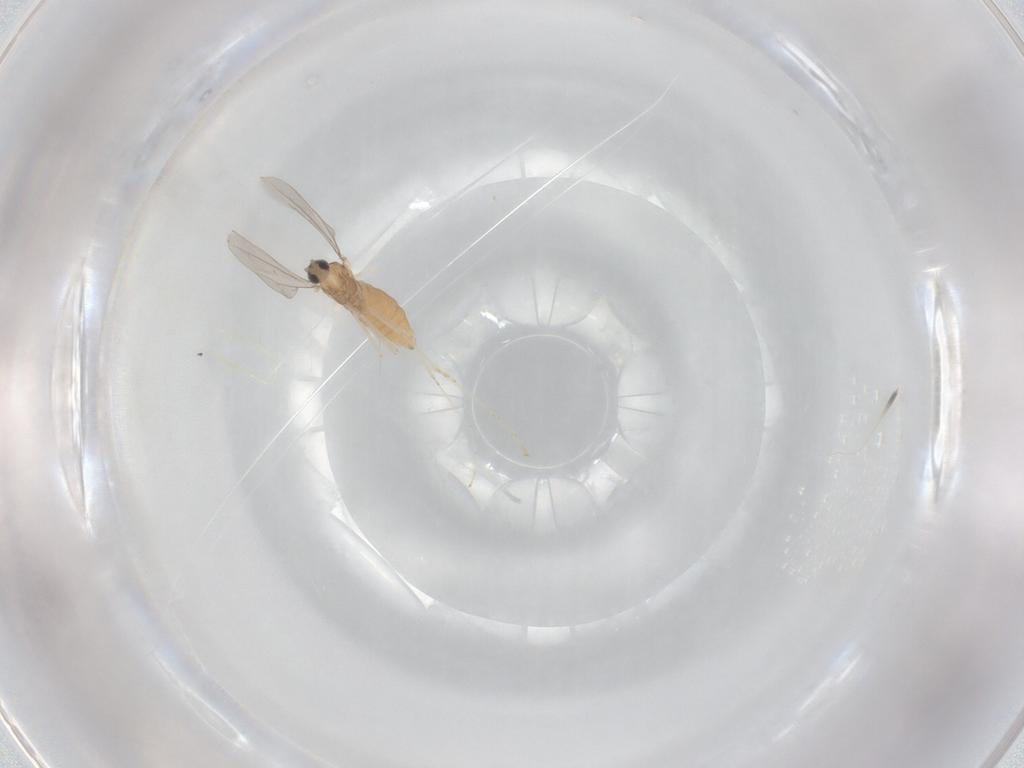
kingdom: Animalia
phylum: Arthropoda
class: Insecta
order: Diptera
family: Cecidomyiidae
